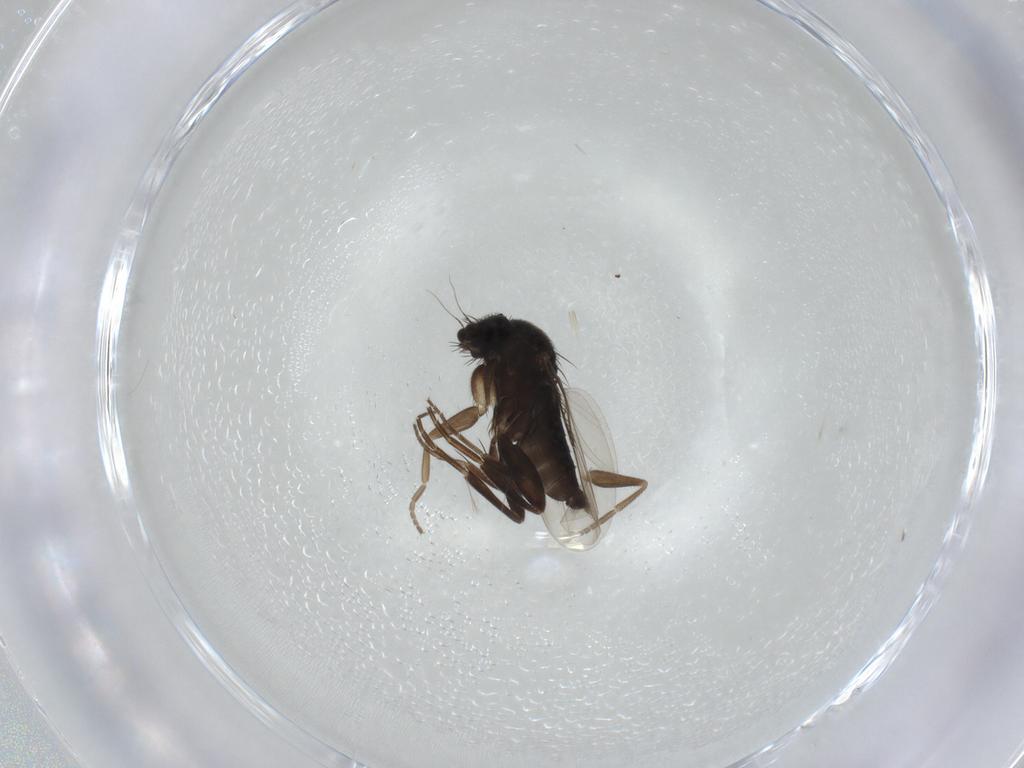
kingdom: Animalia
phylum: Arthropoda
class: Insecta
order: Diptera
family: Phoridae
